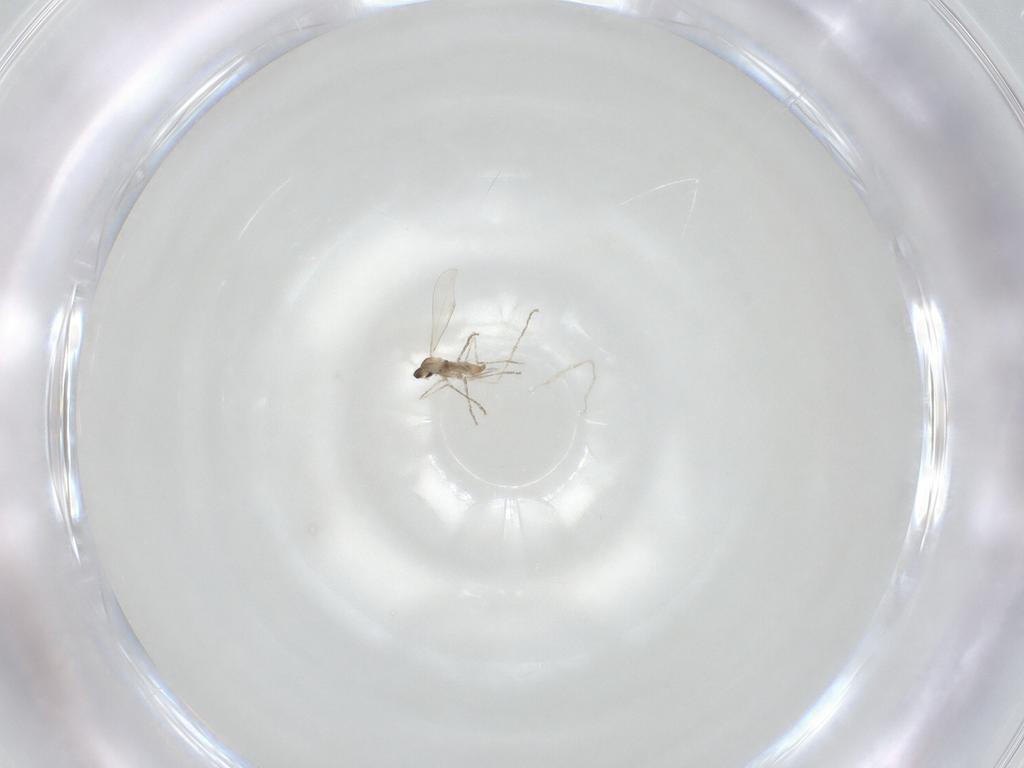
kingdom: Animalia
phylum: Arthropoda
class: Insecta
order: Diptera
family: Cecidomyiidae
